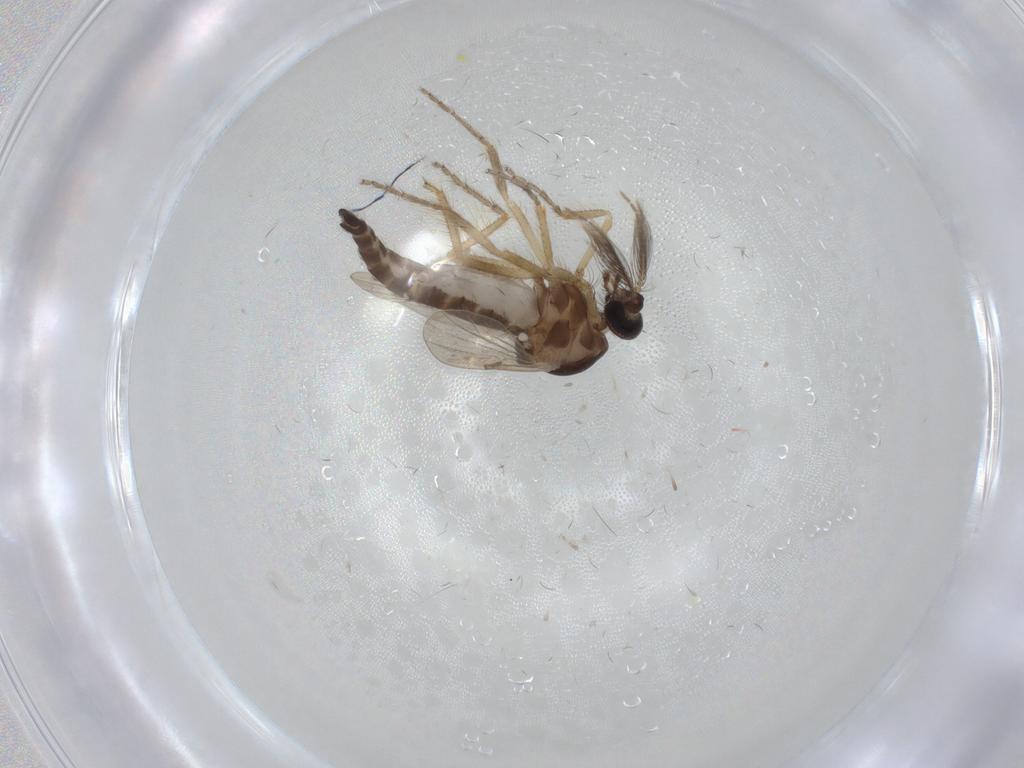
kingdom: Animalia
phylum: Arthropoda
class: Insecta
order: Diptera
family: Ceratopogonidae
